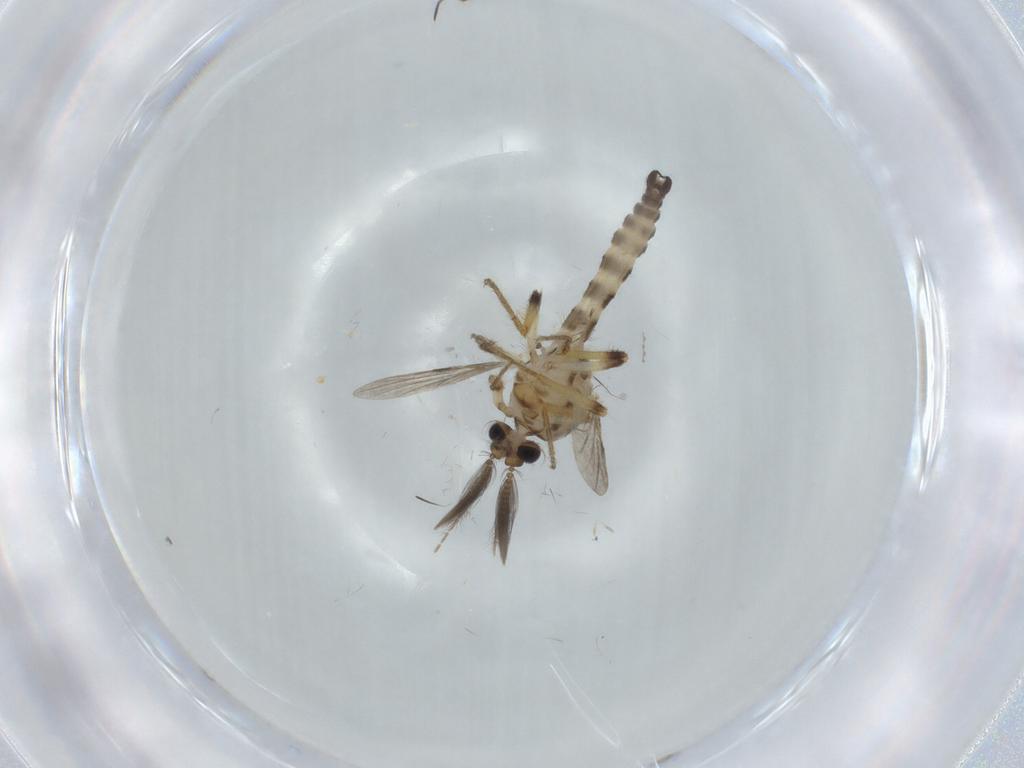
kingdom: Animalia
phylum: Arthropoda
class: Insecta
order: Diptera
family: Ceratopogonidae
